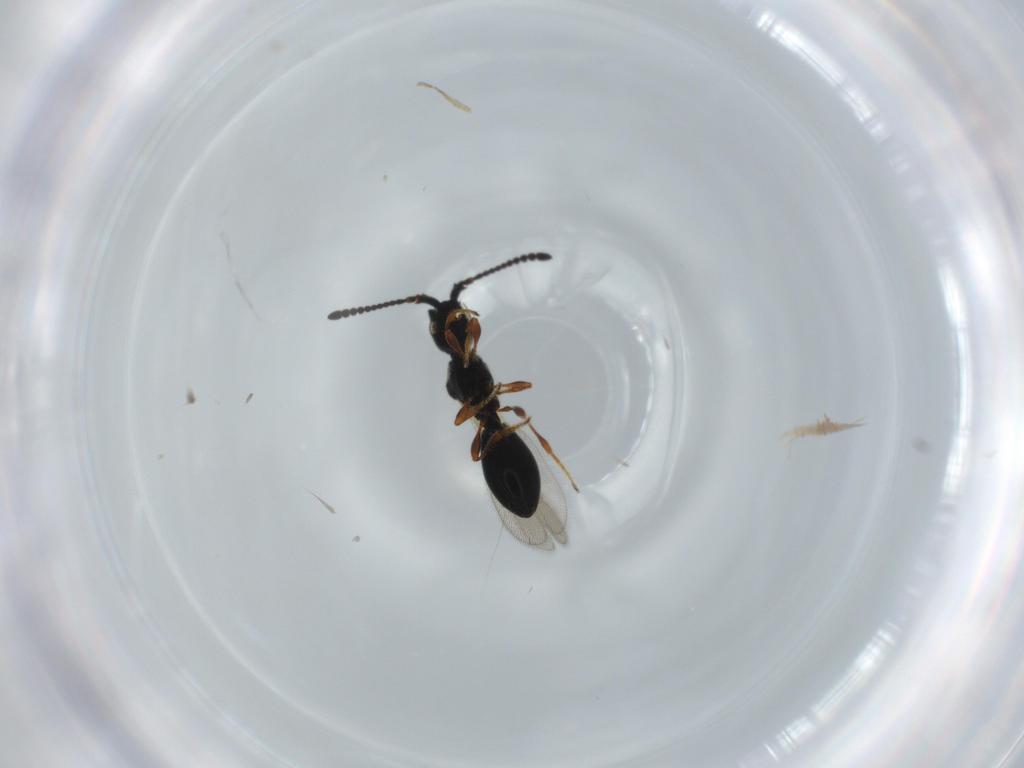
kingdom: Animalia
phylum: Arthropoda
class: Insecta
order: Hymenoptera
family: Diapriidae
